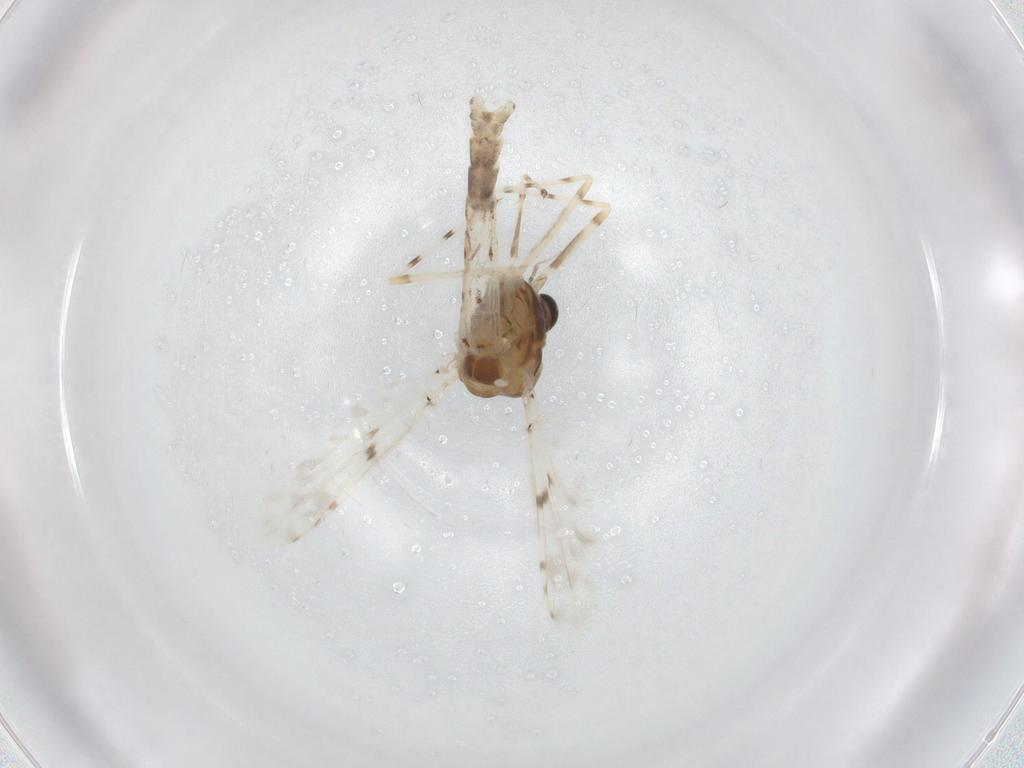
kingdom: Animalia
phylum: Arthropoda
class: Insecta
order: Diptera
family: Chironomidae
